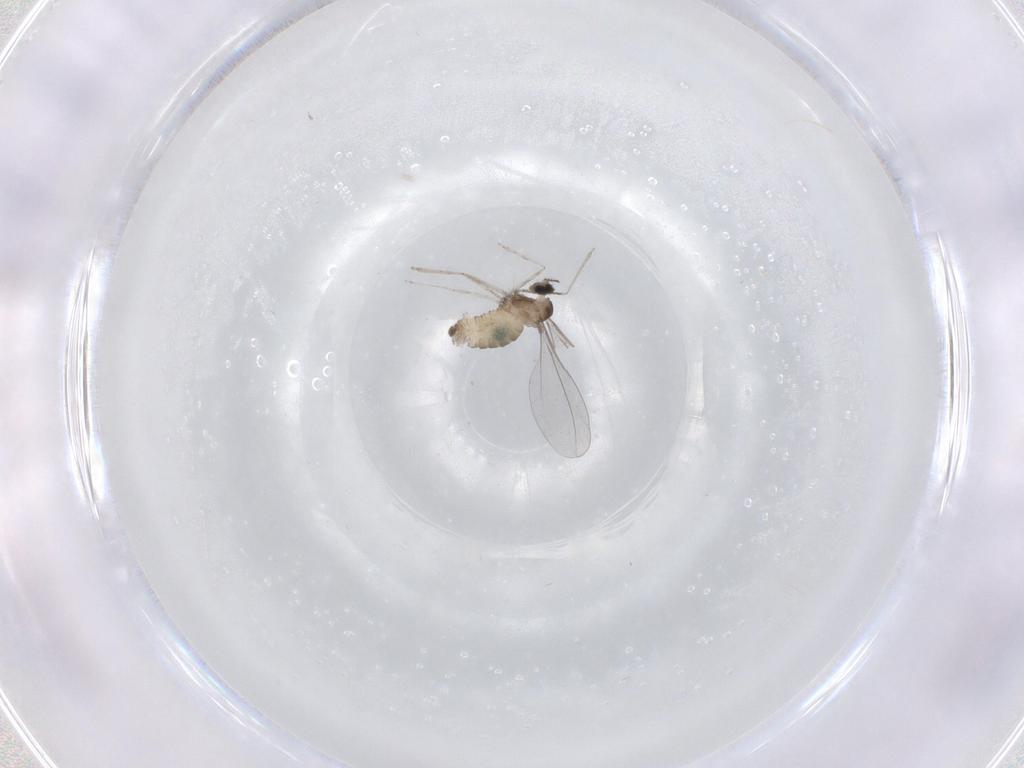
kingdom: Animalia
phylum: Arthropoda
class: Insecta
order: Diptera
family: Cecidomyiidae
